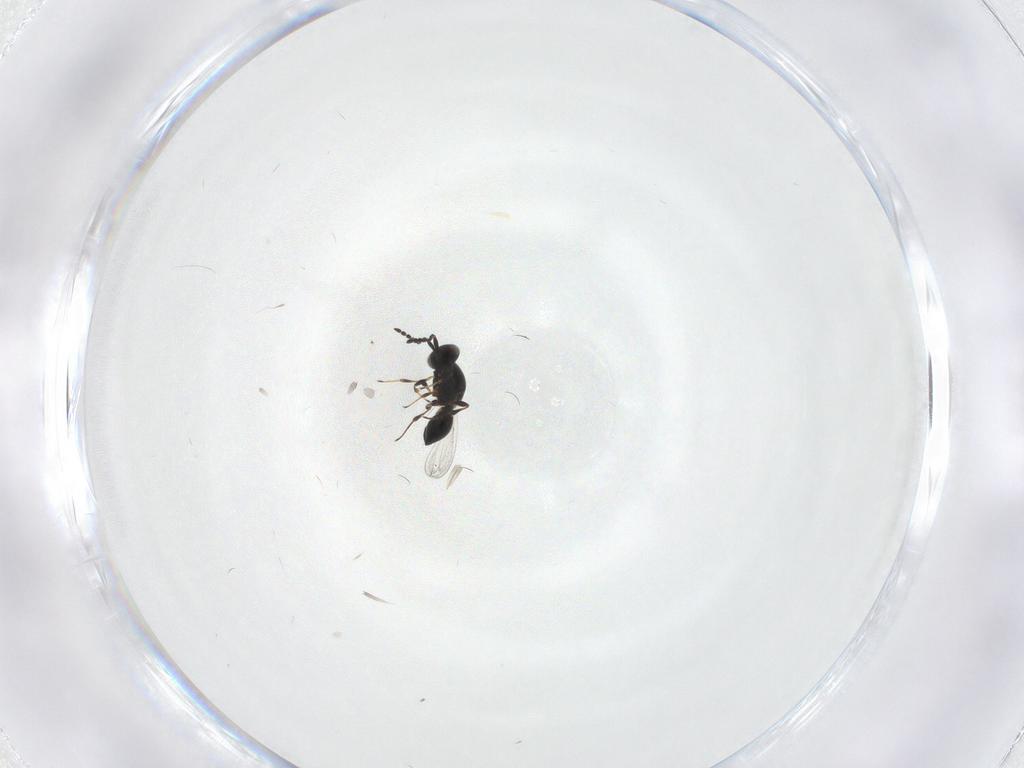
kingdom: Animalia
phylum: Arthropoda
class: Insecta
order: Hymenoptera
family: Platygastridae
